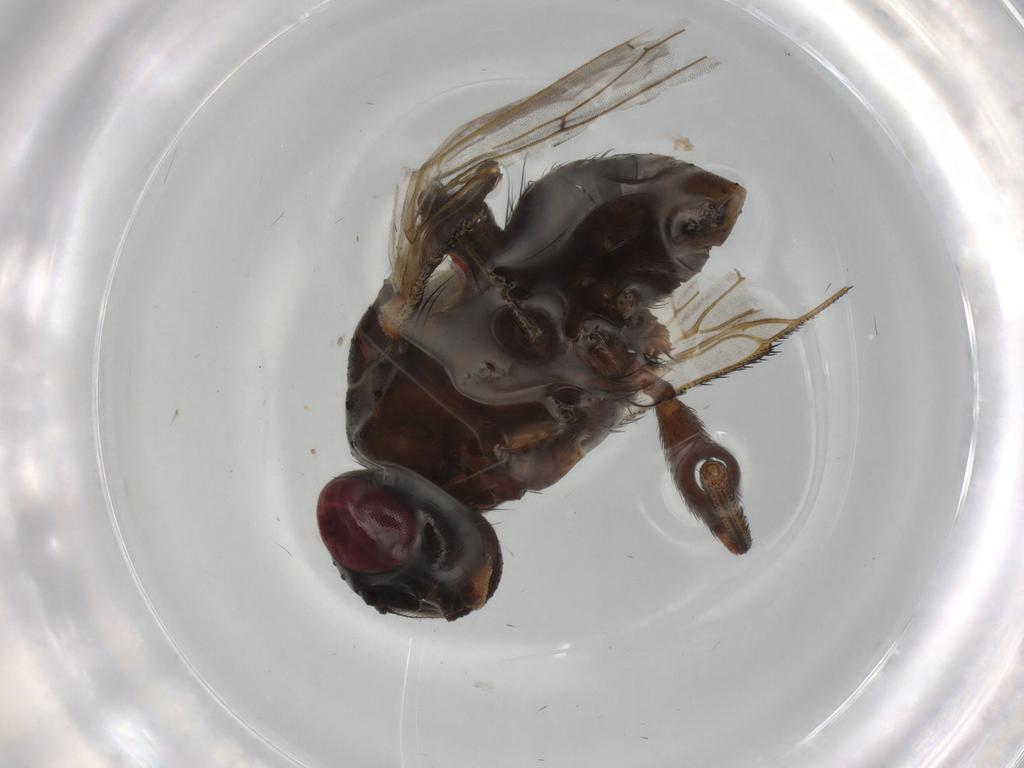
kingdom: Animalia
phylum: Arthropoda
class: Insecta
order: Diptera
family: Muscidae
